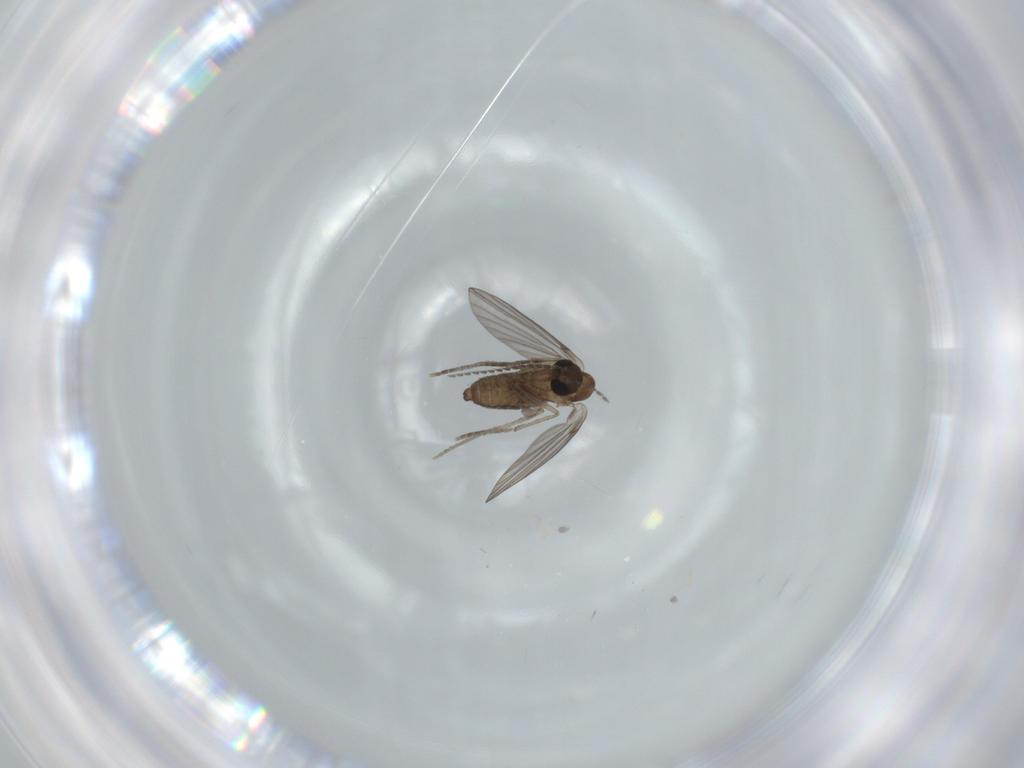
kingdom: Animalia
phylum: Arthropoda
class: Insecta
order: Diptera
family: Psychodidae
